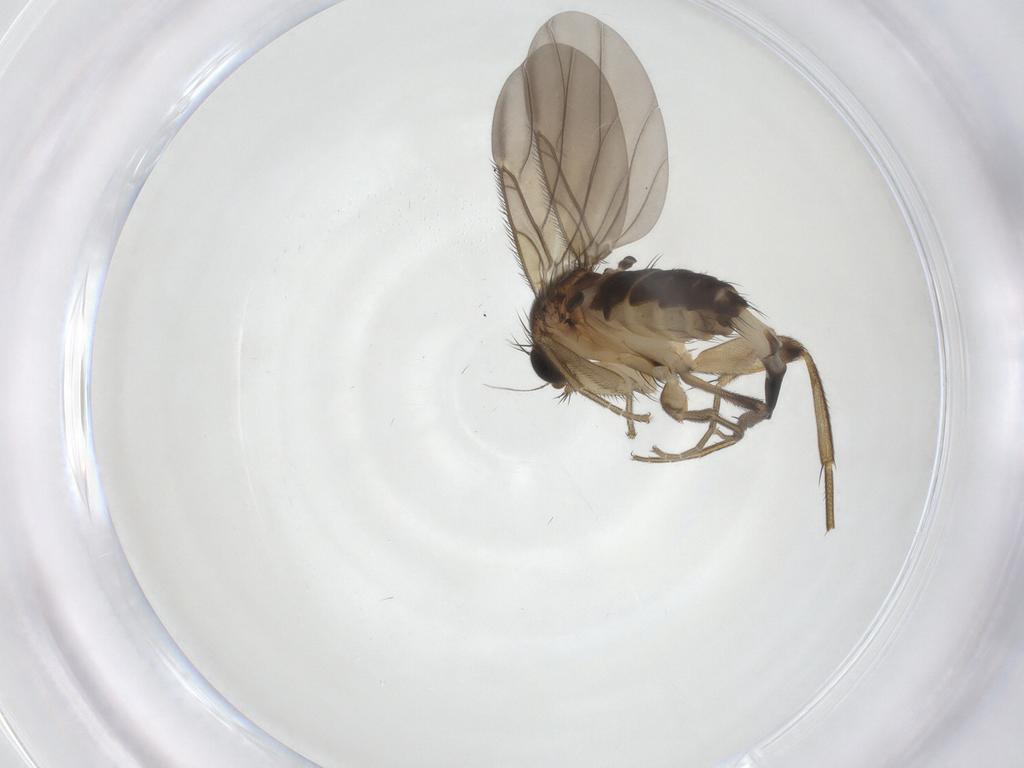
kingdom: Animalia
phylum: Arthropoda
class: Insecta
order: Diptera
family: Phoridae
